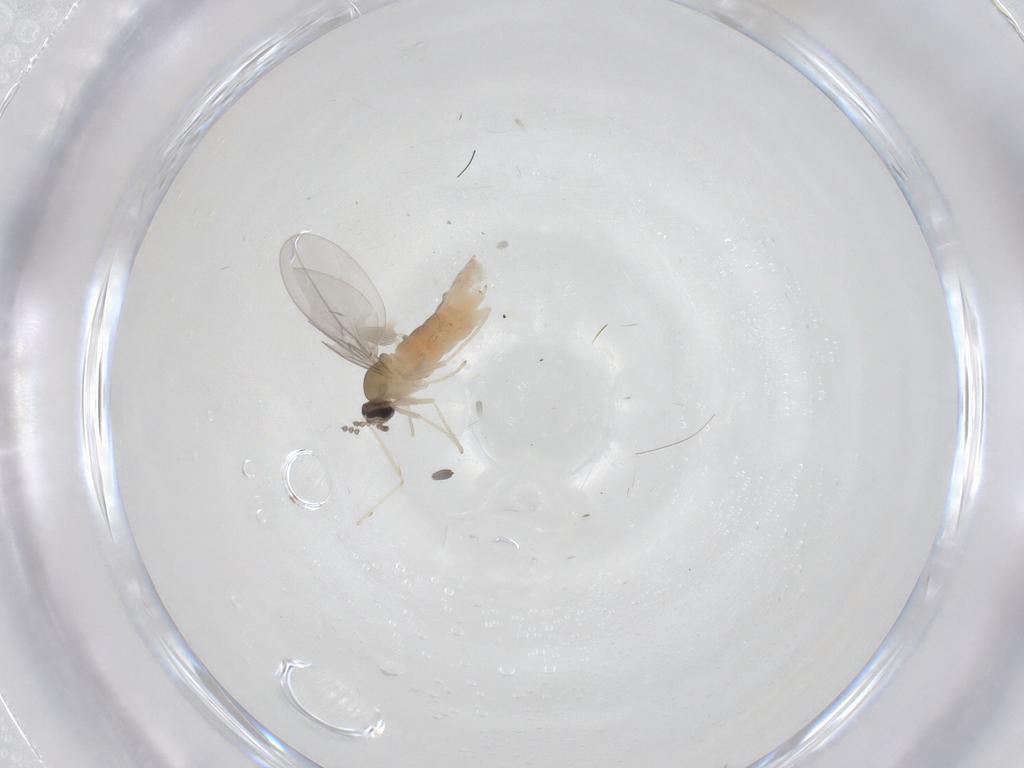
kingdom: Animalia
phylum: Arthropoda
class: Insecta
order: Diptera
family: Cecidomyiidae
